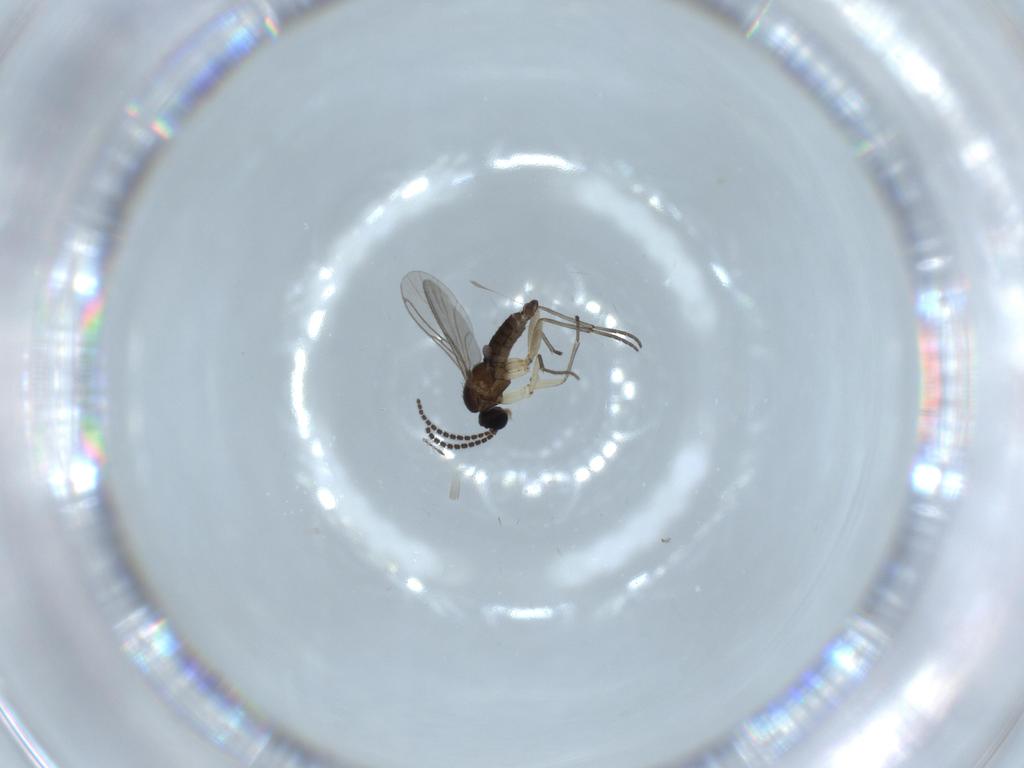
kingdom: Animalia
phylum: Arthropoda
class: Insecta
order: Diptera
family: Sciaridae
